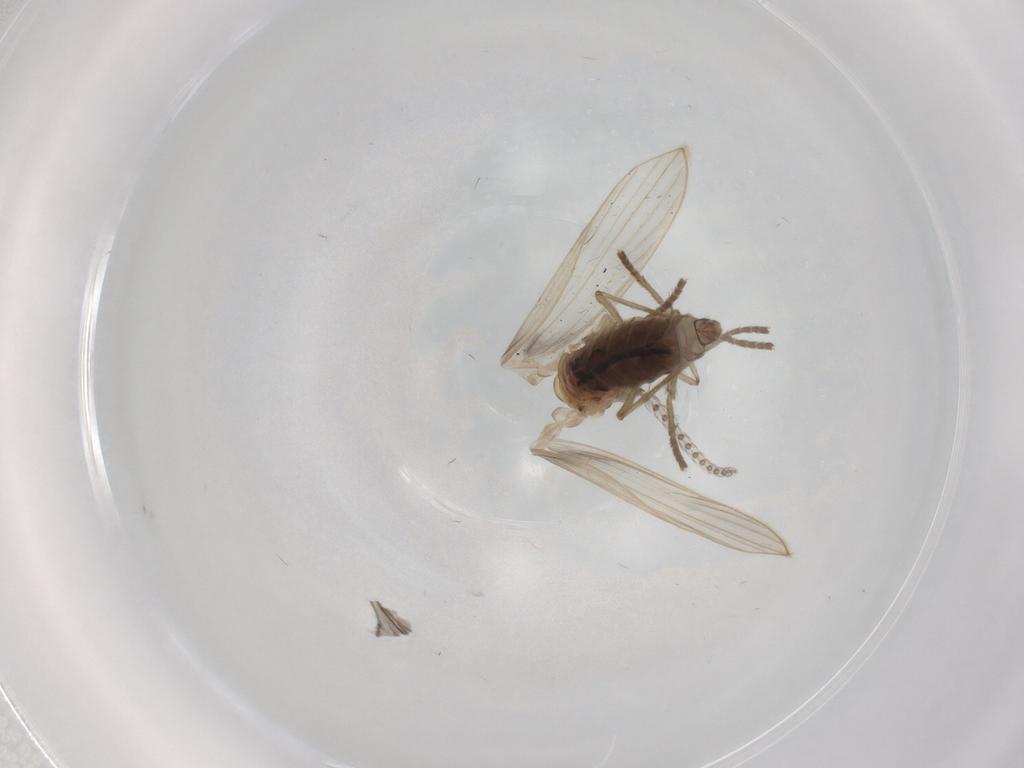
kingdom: Animalia
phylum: Arthropoda
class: Insecta
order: Diptera
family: Psychodidae
